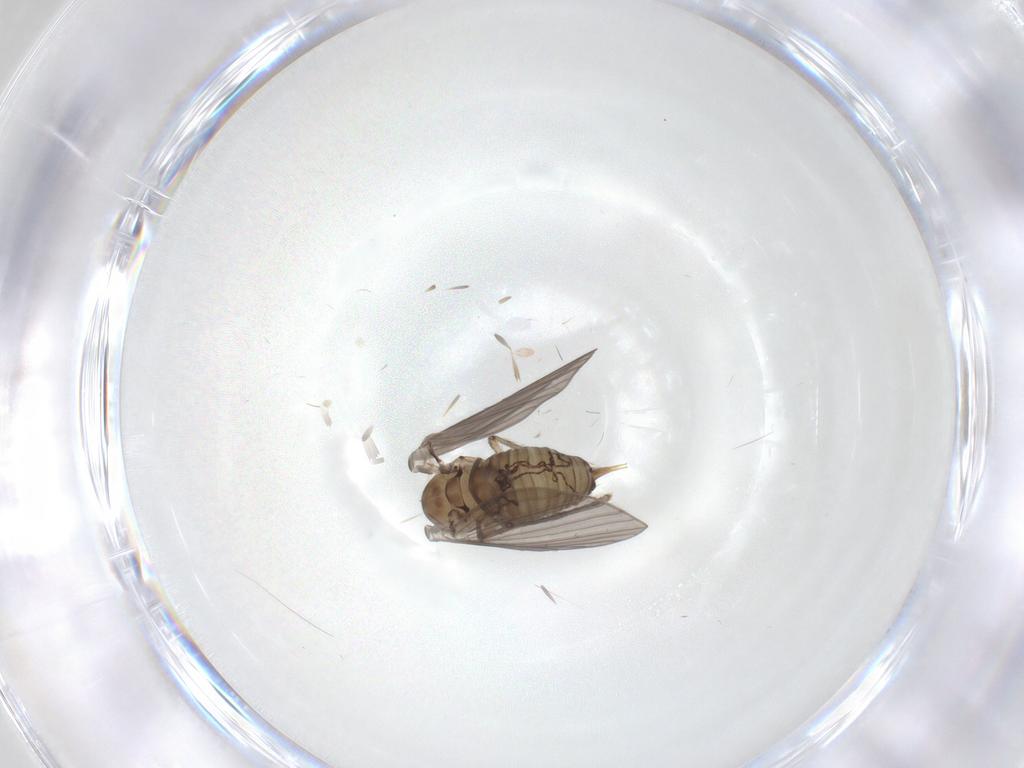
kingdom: Animalia
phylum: Arthropoda
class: Insecta
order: Diptera
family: Psychodidae
